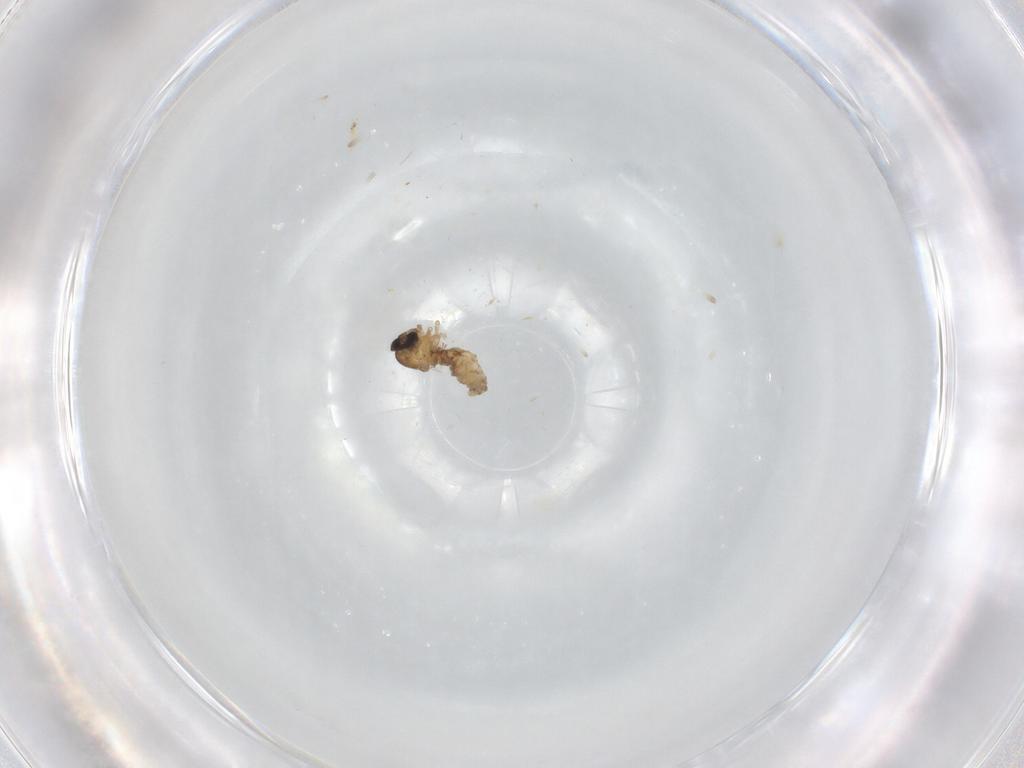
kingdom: Animalia
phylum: Arthropoda
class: Insecta
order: Diptera
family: Psychodidae
